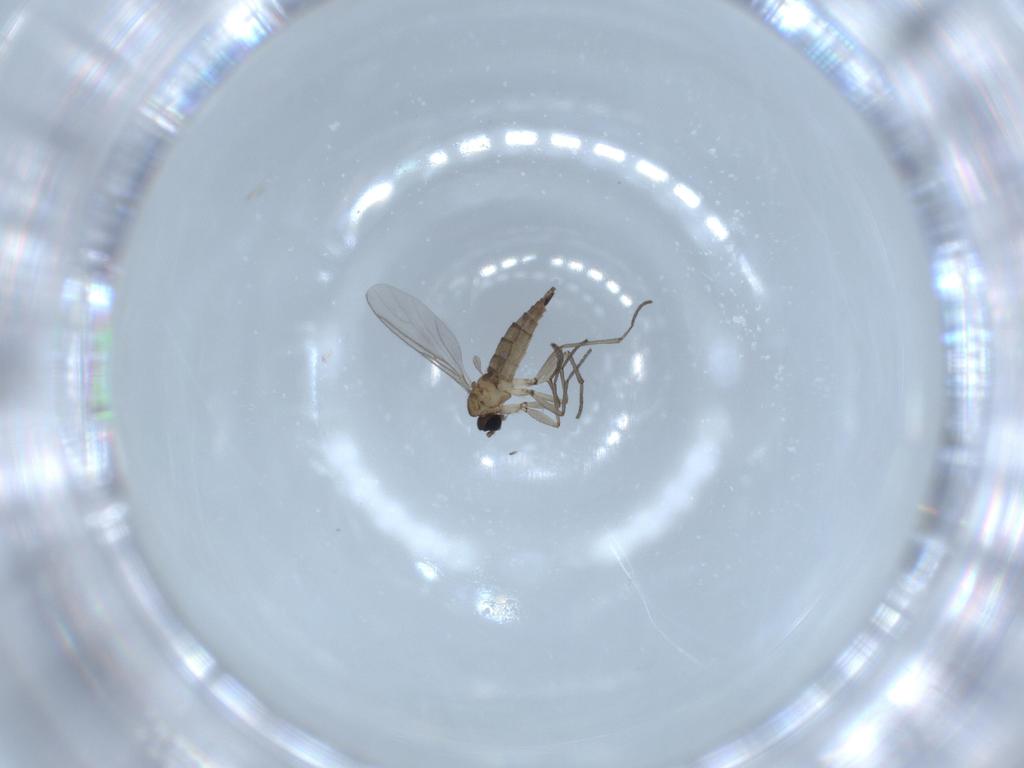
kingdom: Animalia
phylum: Arthropoda
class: Insecta
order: Diptera
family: Sciaridae
